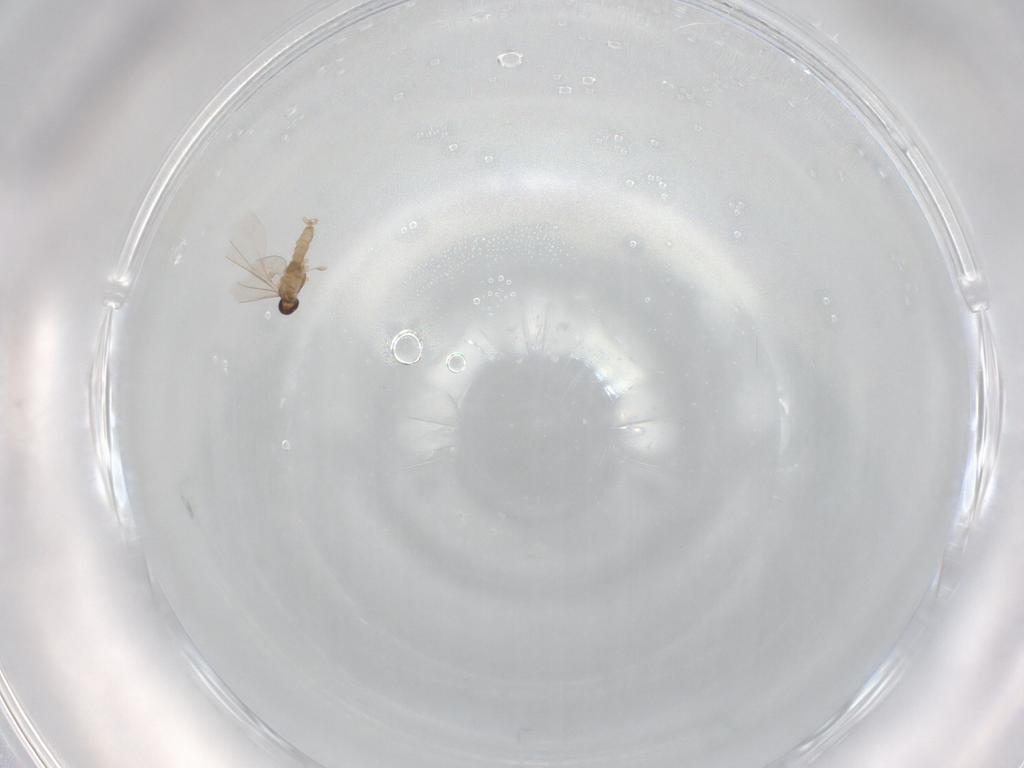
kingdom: Animalia
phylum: Arthropoda
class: Insecta
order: Diptera
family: Cecidomyiidae
